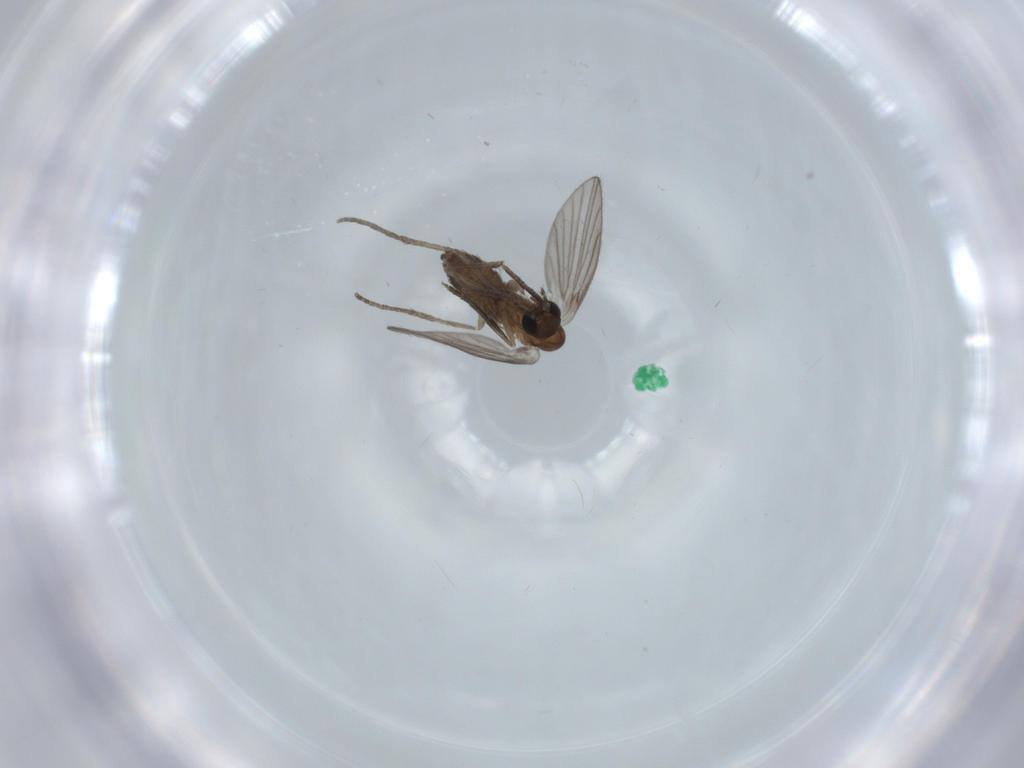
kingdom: Animalia
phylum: Arthropoda
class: Insecta
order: Diptera
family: Psychodidae
